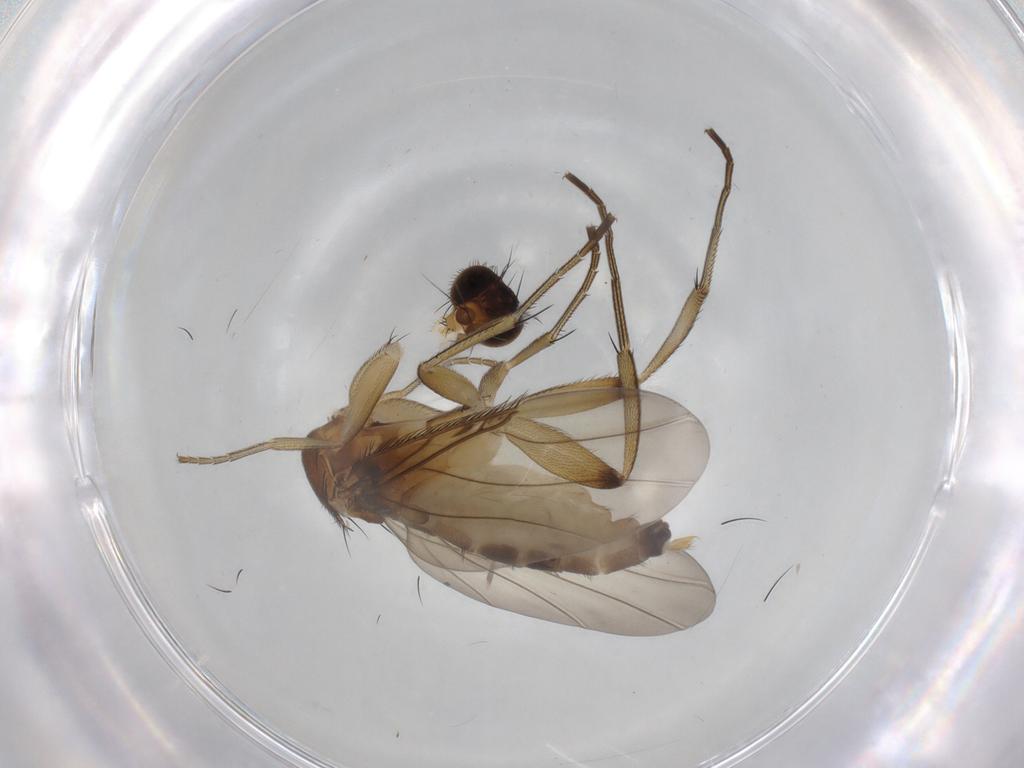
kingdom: Animalia
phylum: Arthropoda
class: Insecta
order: Diptera
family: Phoridae
